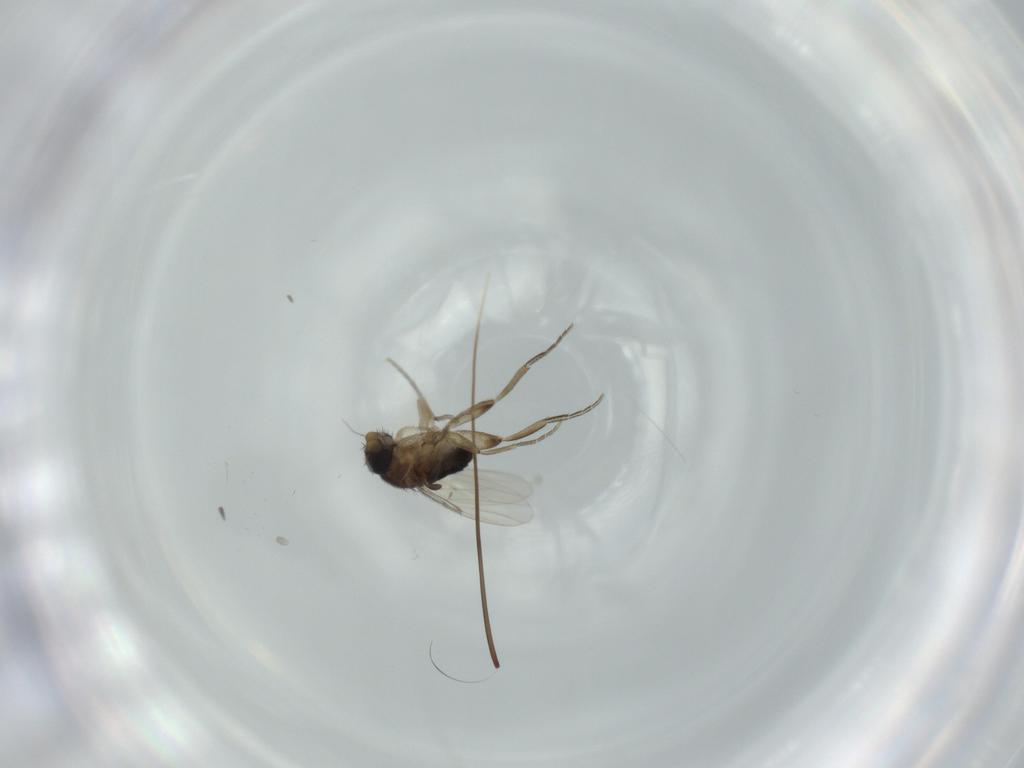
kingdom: Animalia
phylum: Arthropoda
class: Insecta
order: Diptera
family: Phoridae
